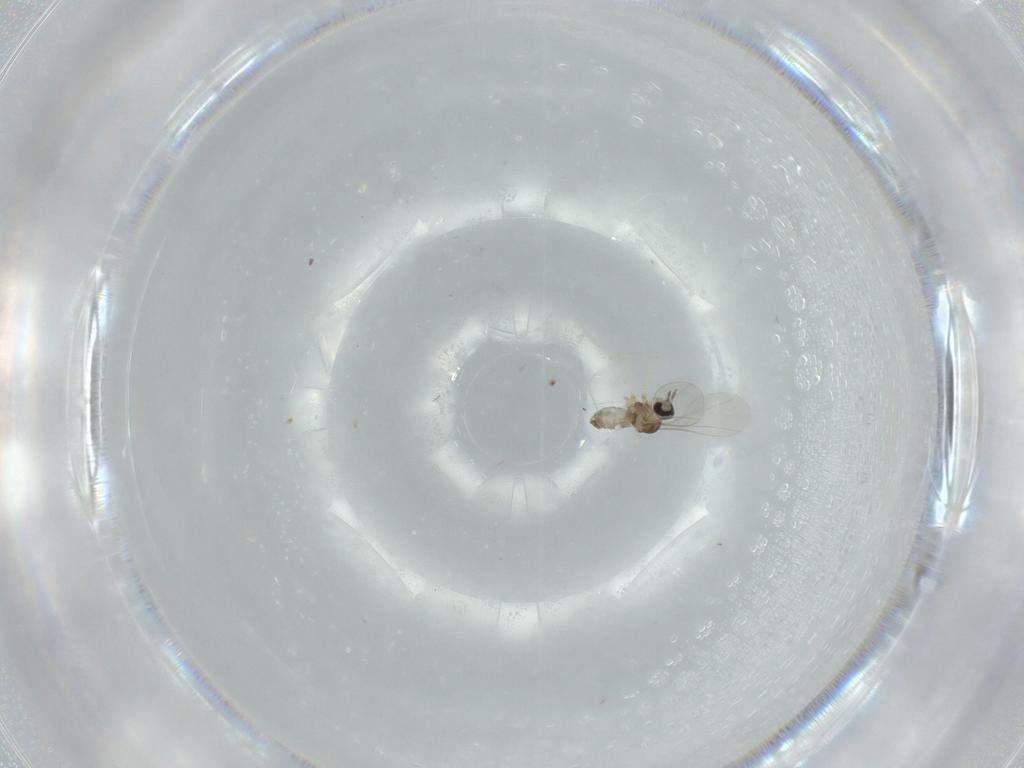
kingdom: Animalia
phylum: Arthropoda
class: Insecta
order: Diptera
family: Cecidomyiidae
